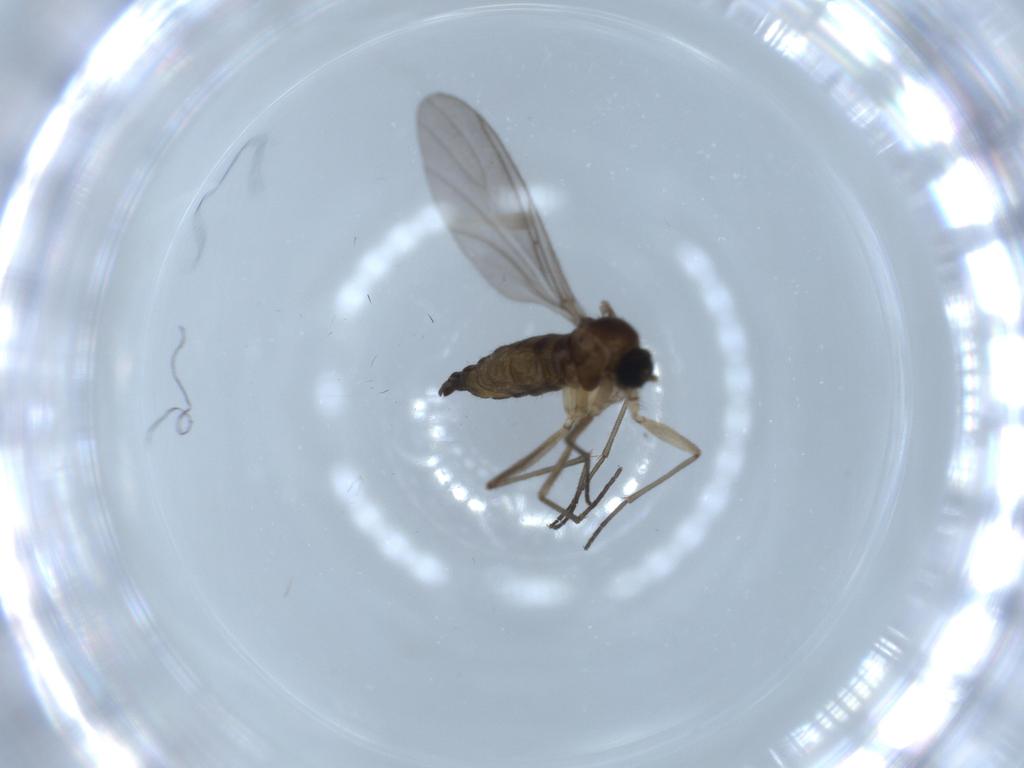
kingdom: Animalia
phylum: Arthropoda
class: Insecta
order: Diptera
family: Sciaridae
